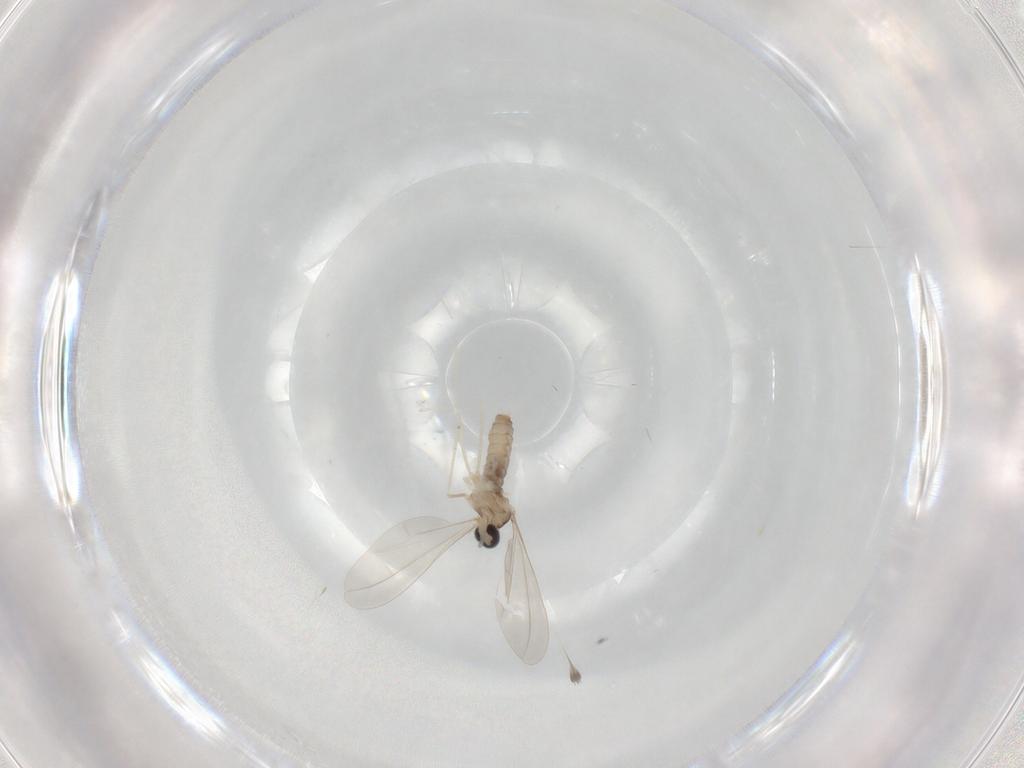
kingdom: Animalia
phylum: Arthropoda
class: Insecta
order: Diptera
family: Cecidomyiidae
